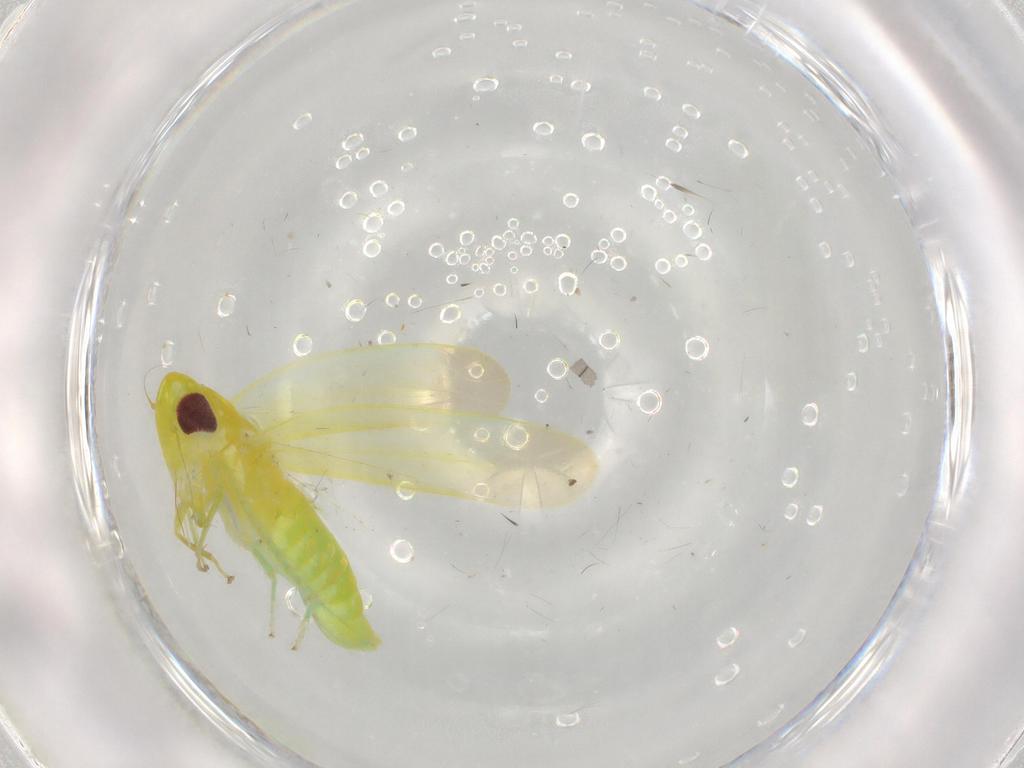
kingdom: Animalia
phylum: Arthropoda
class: Insecta
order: Hemiptera
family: Cicadellidae
